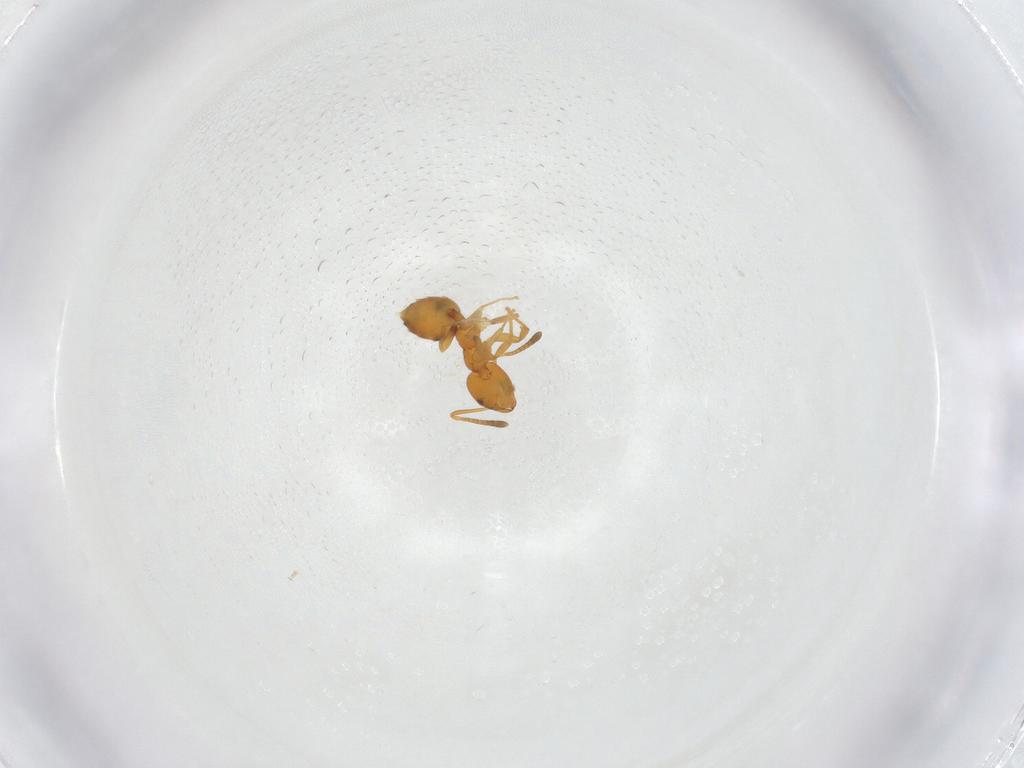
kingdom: Animalia
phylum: Arthropoda
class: Insecta
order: Hymenoptera
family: Formicidae
